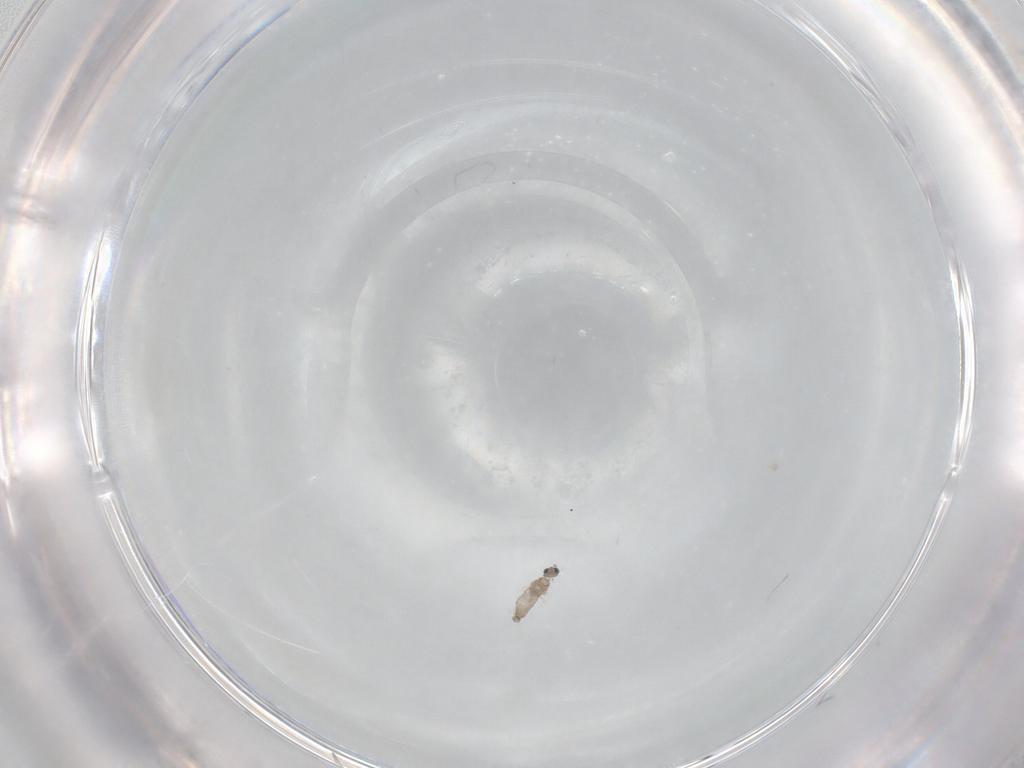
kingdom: Animalia
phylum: Arthropoda
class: Insecta
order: Diptera
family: Cecidomyiidae
